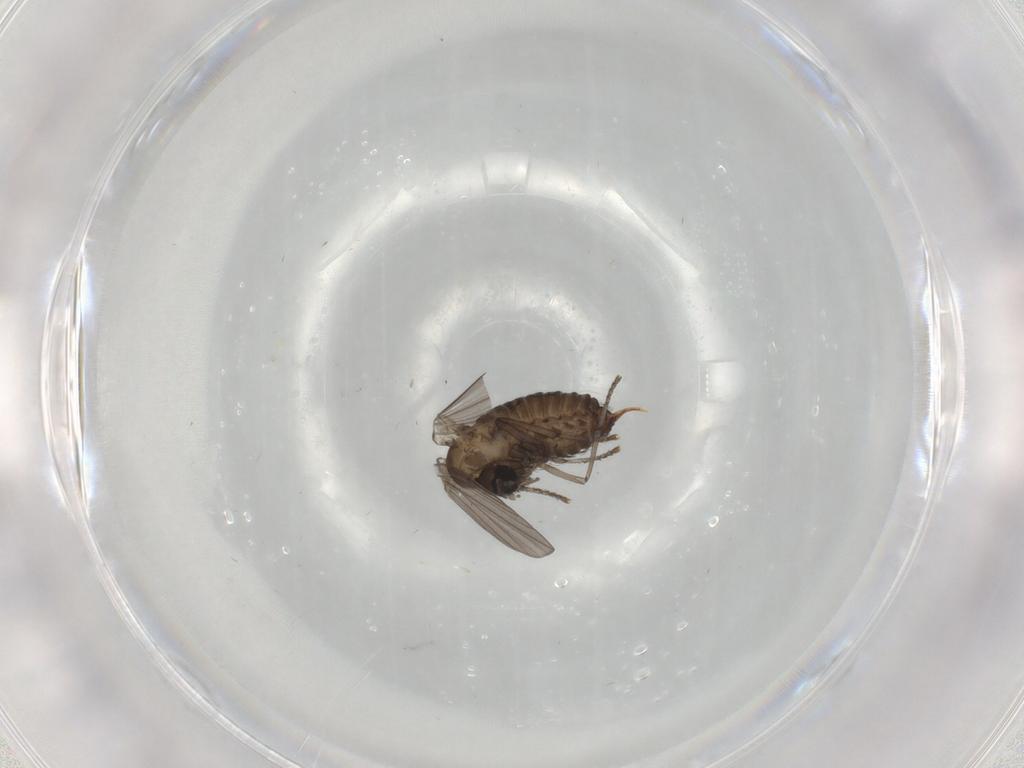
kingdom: Animalia
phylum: Arthropoda
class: Insecta
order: Diptera
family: Psychodidae
